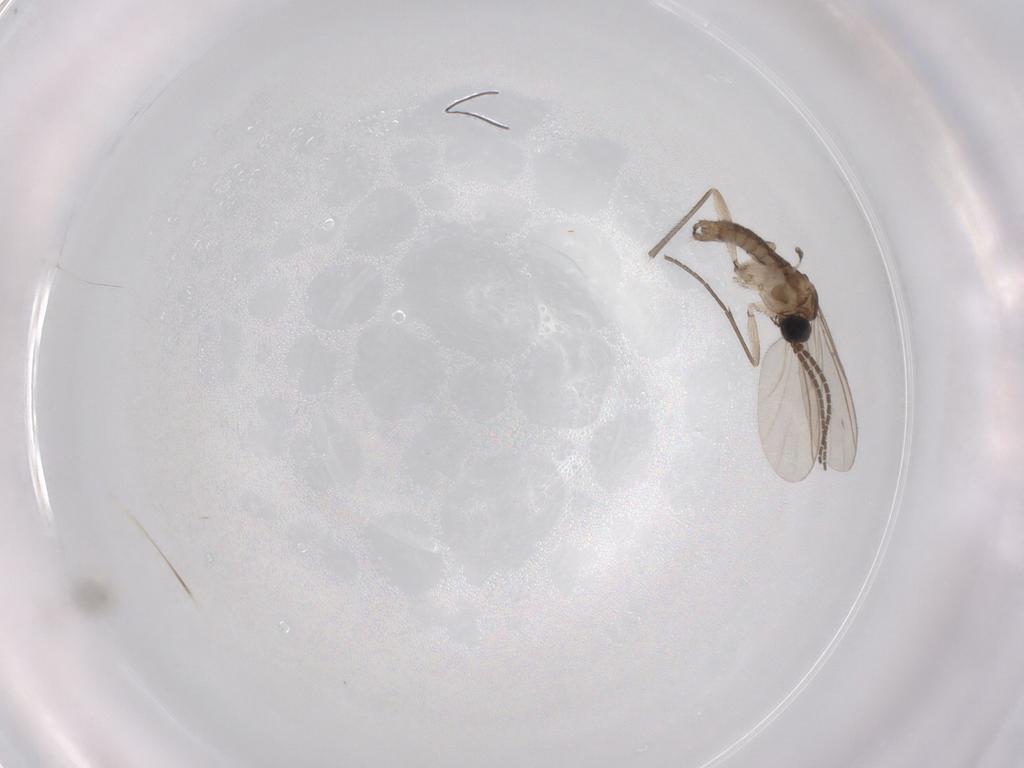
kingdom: Animalia
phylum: Arthropoda
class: Insecta
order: Diptera
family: Cecidomyiidae
